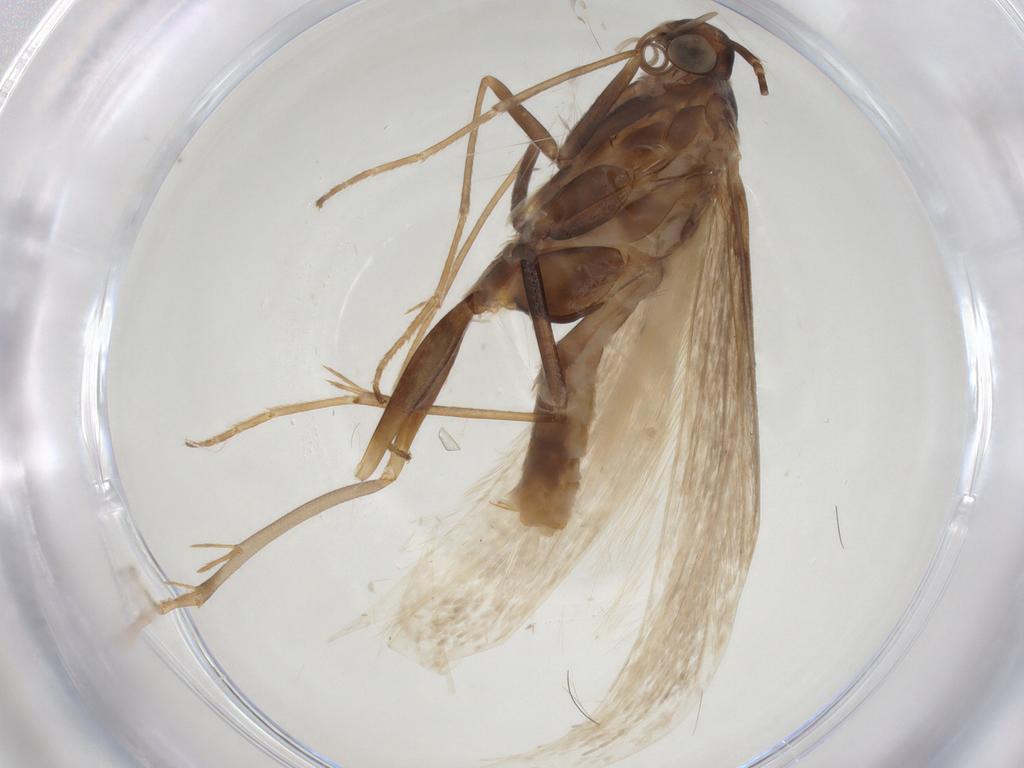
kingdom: Animalia
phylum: Arthropoda
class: Insecta
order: Lepidoptera
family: Coleophoridae
